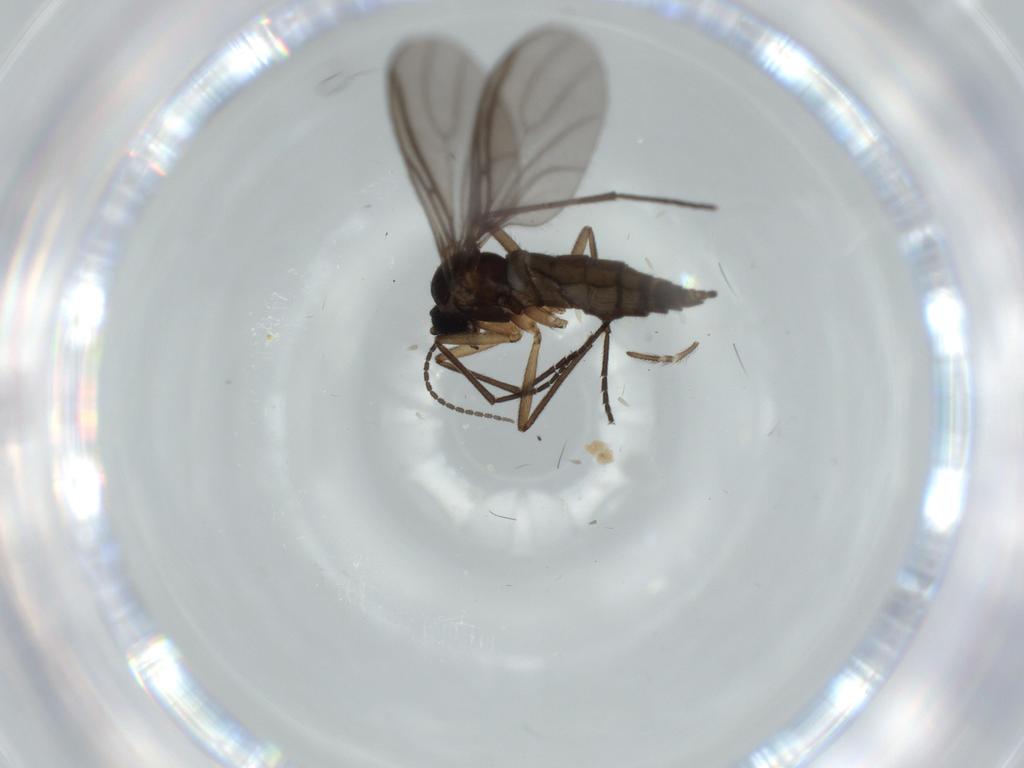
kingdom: Animalia
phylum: Arthropoda
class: Insecta
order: Diptera
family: Sciaridae
